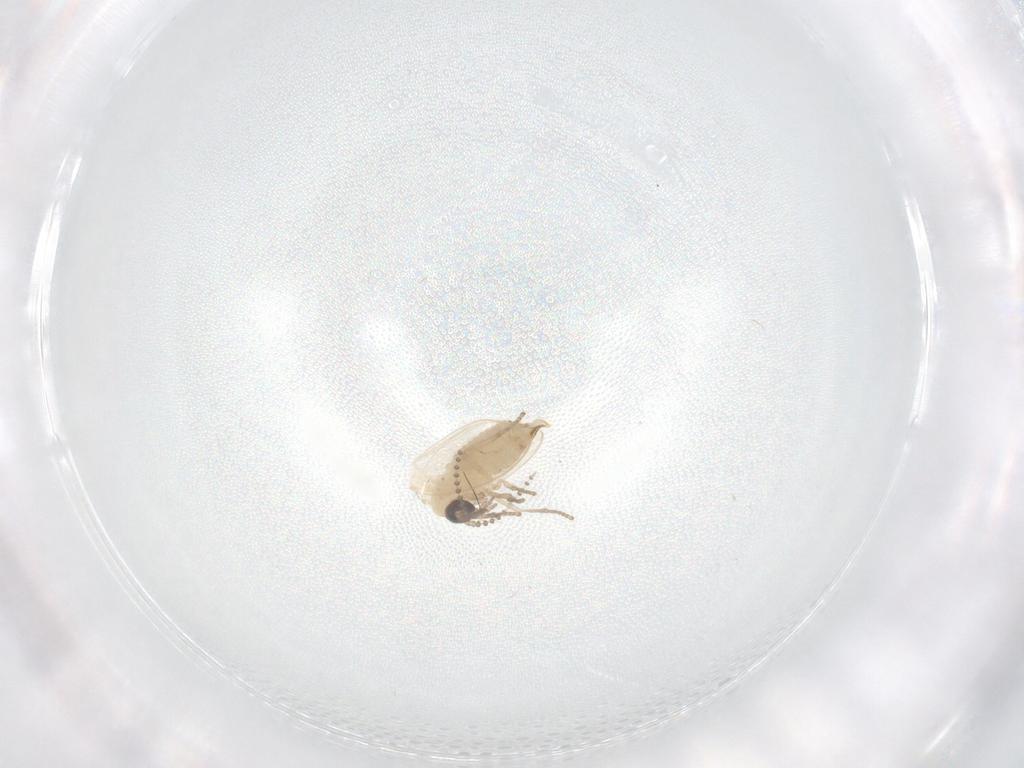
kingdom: Animalia
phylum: Arthropoda
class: Insecta
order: Diptera
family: Psychodidae
